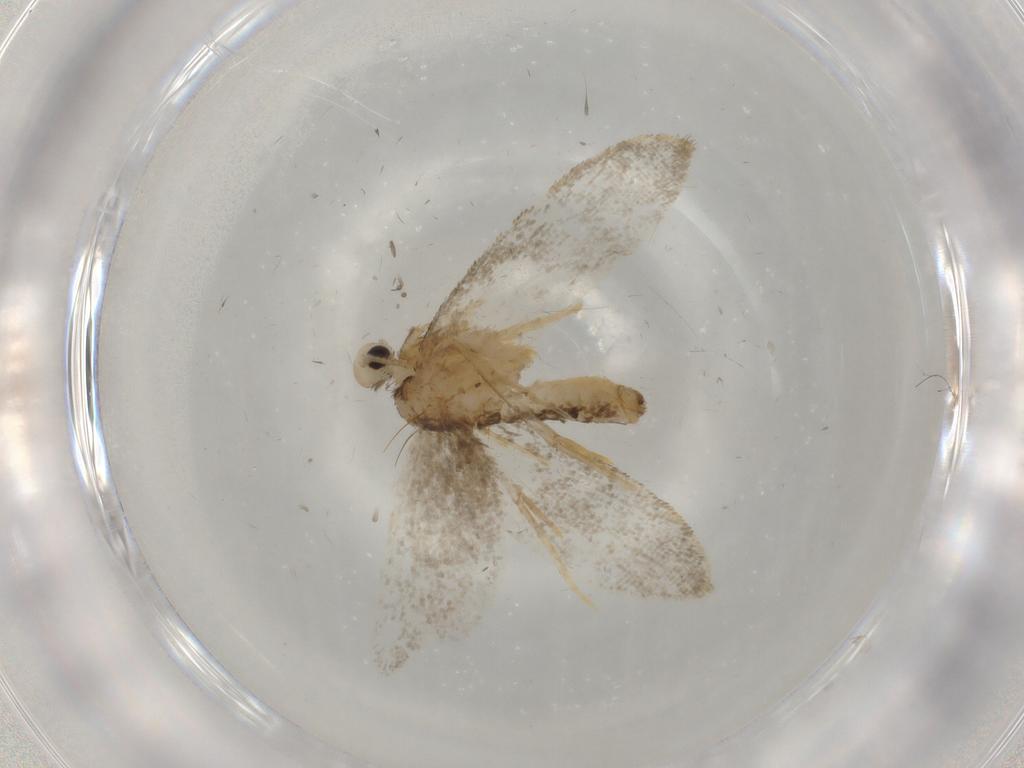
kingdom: Animalia
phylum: Arthropoda
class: Insecta
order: Lepidoptera
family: Psychidae
